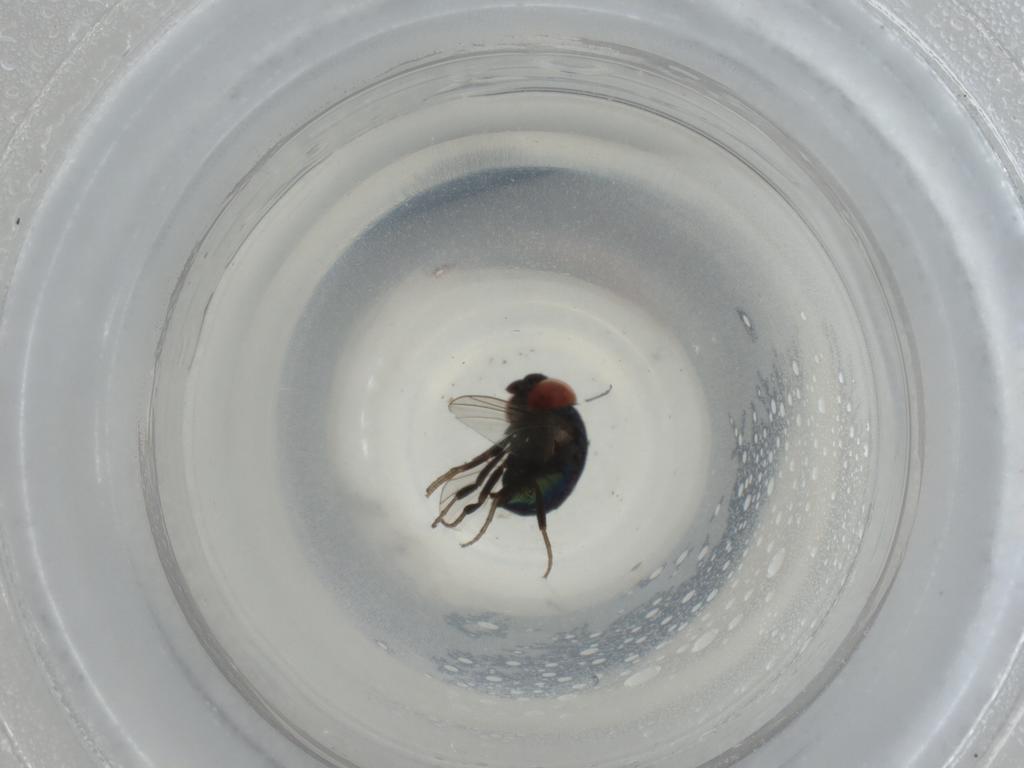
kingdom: Animalia
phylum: Arthropoda
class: Insecta
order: Diptera
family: Cryptochetidae
